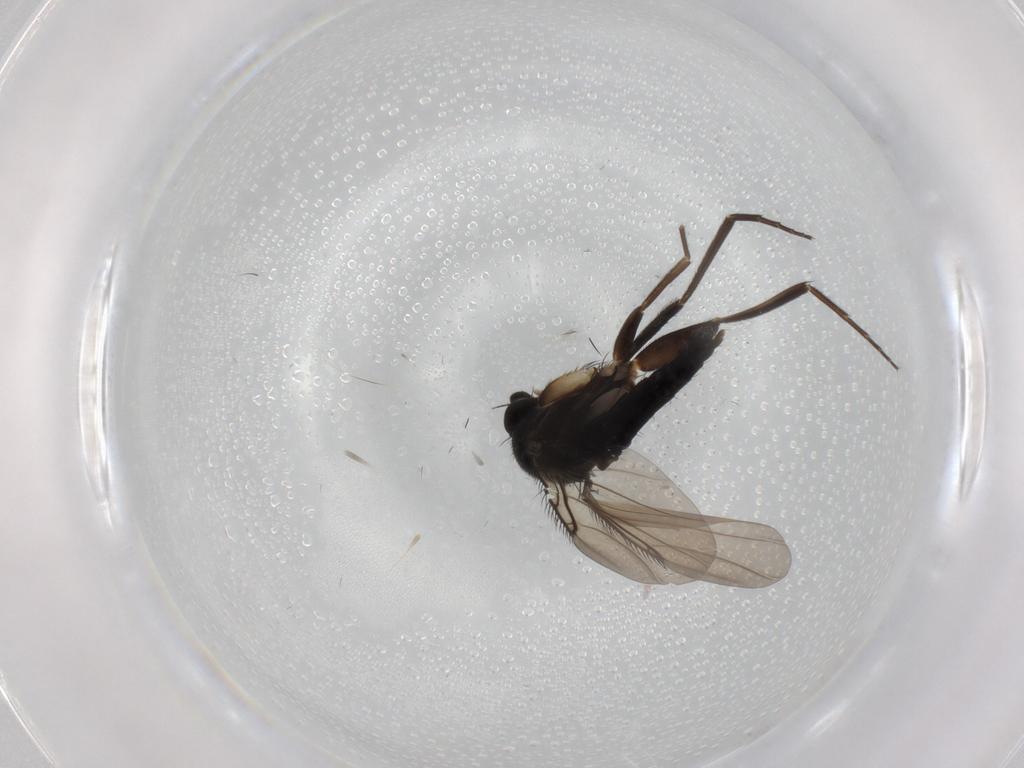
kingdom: Animalia
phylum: Arthropoda
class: Insecta
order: Diptera
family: Phoridae
